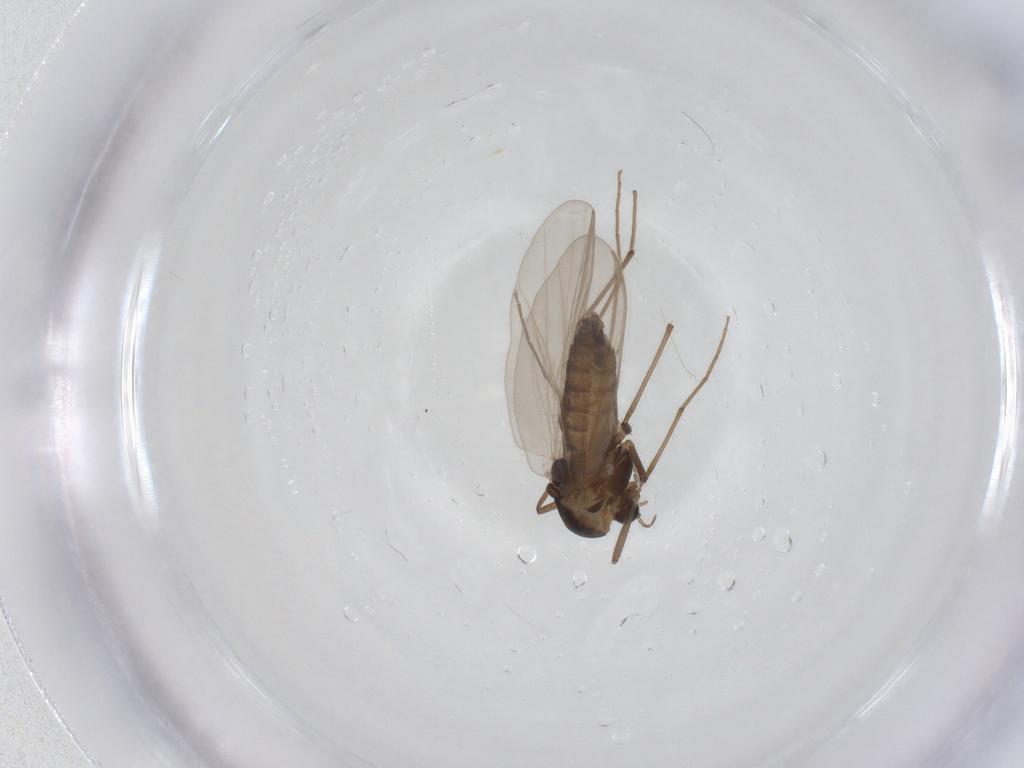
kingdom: Animalia
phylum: Arthropoda
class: Insecta
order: Diptera
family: Chironomidae
